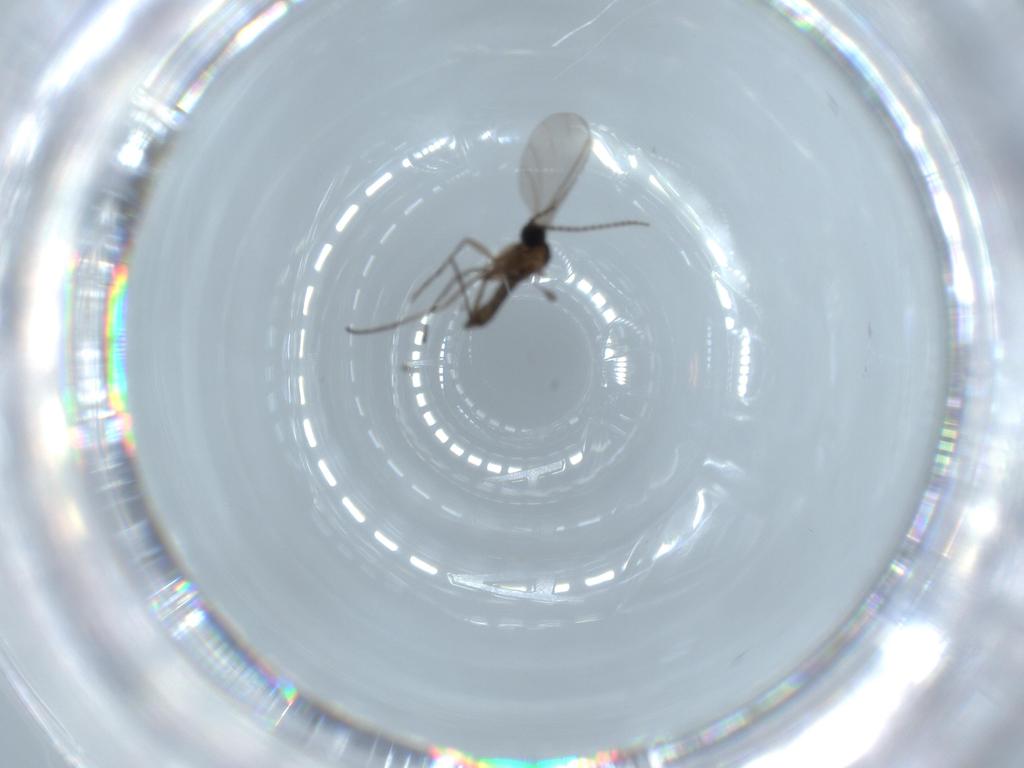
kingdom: Animalia
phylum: Arthropoda
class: Insecta
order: Diptera
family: Sciaridae
